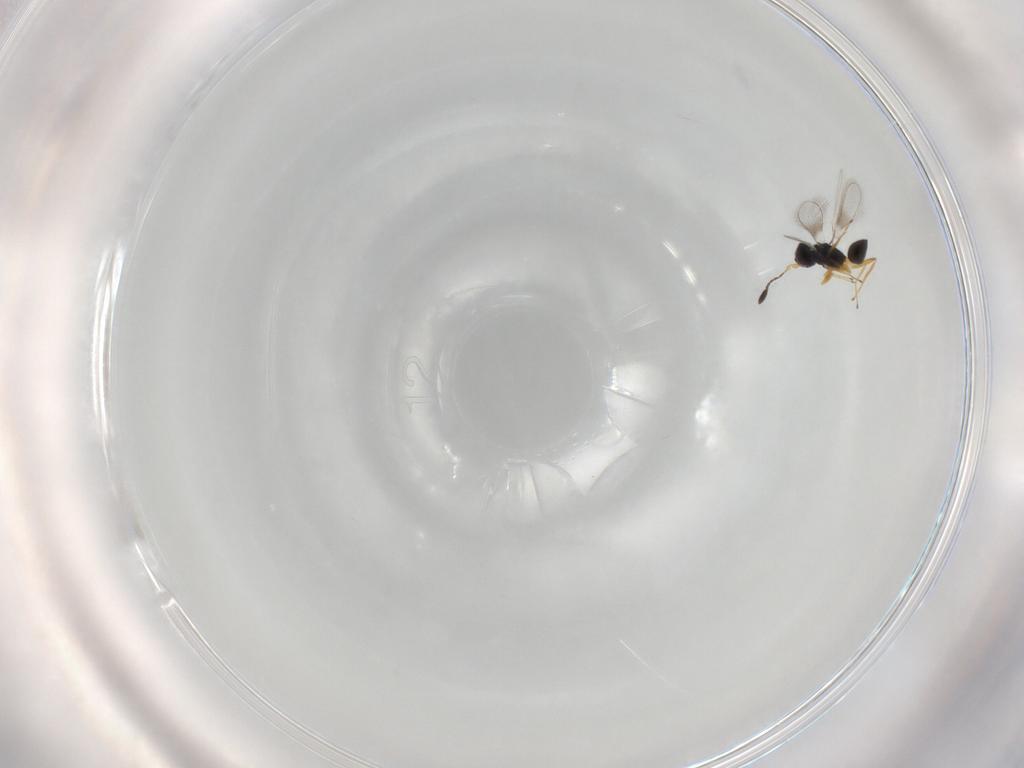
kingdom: Animalia
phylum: Arthropoda
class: Insecta
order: Hymenoptera
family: Mymaridae
